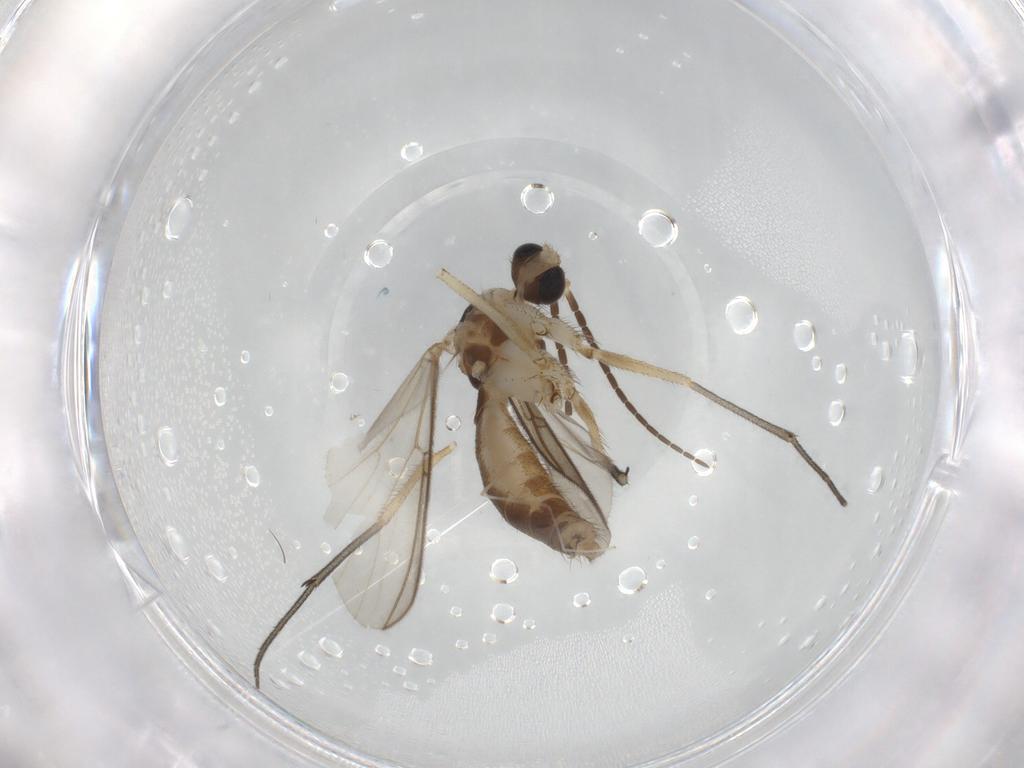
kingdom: Animalia
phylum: Arthropoda
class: Insecta
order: Diptera
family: Mycetophilidae
